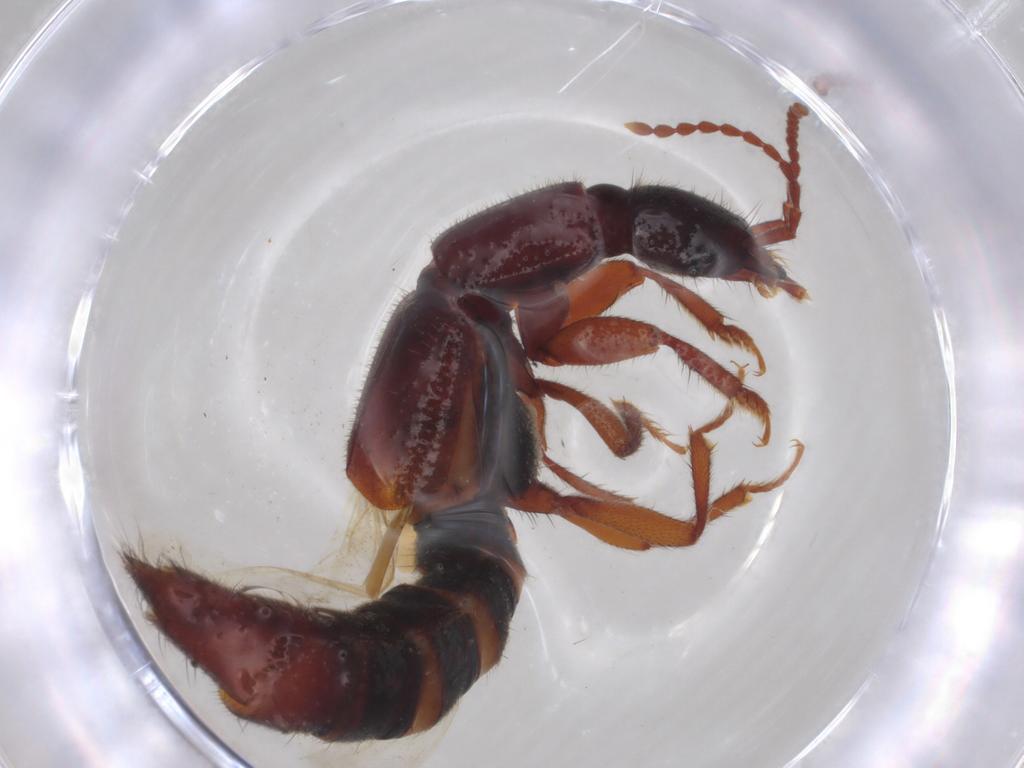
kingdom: Animalia
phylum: Arthropoda
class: Insecta
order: Coleoptera
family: Staphylinidae
